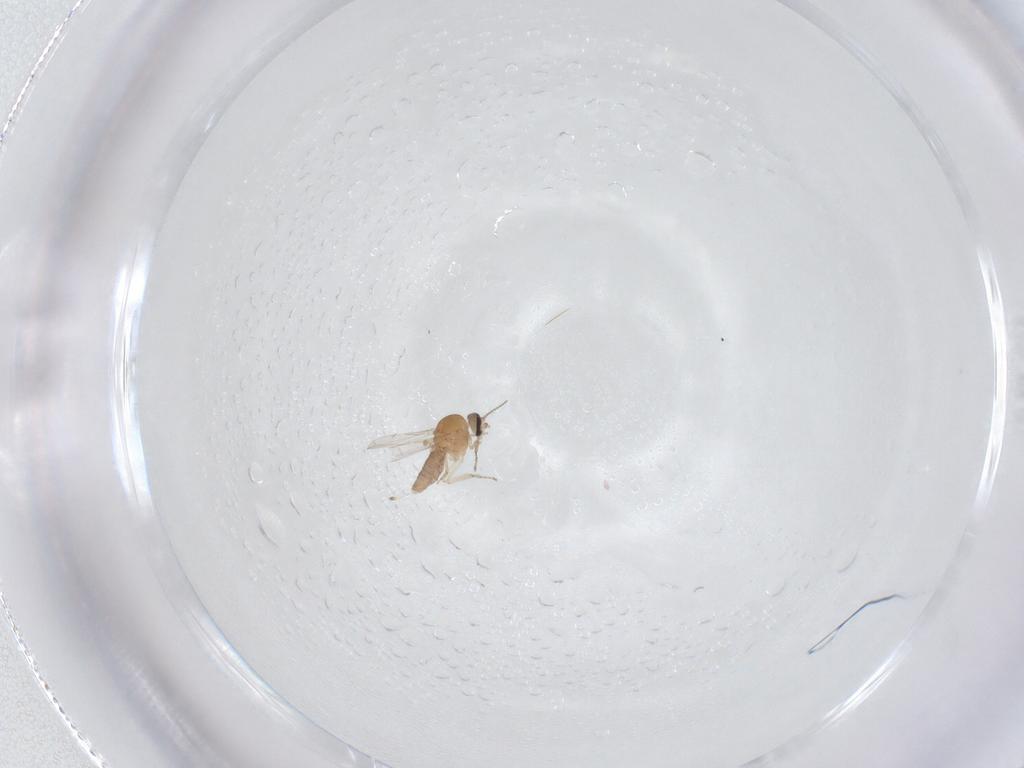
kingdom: Animalia
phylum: Arthropoda
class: Insecta
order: Diptera
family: Ceratopogonidae
